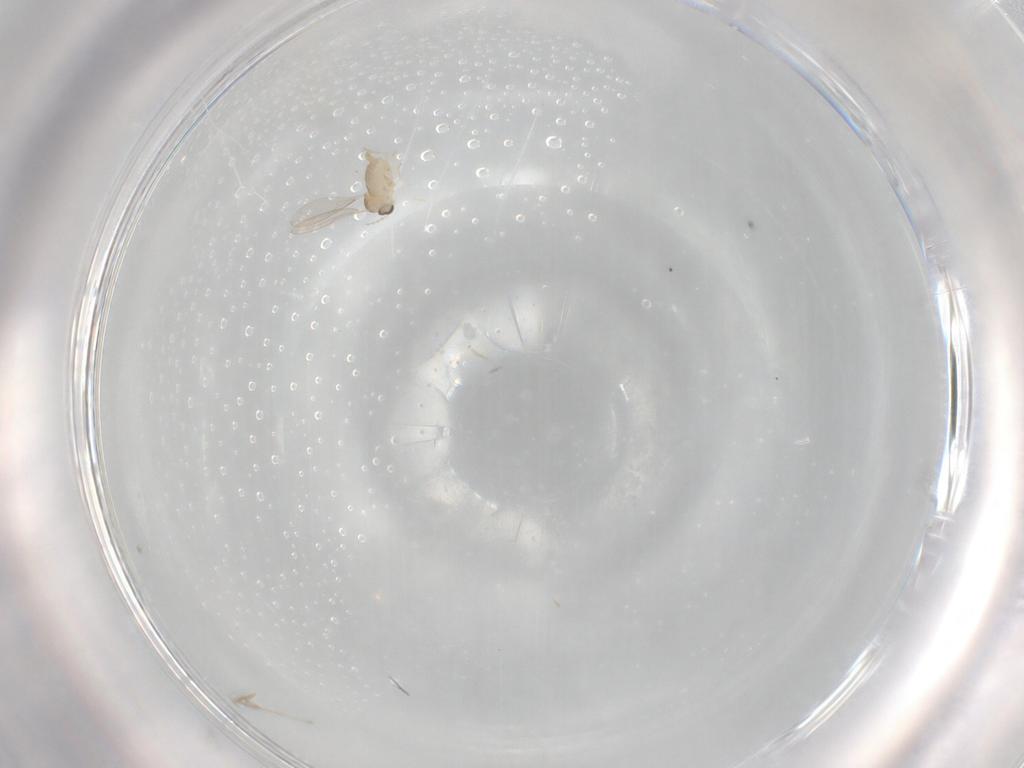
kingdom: Animalia
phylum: Arthropoda
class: Insecta
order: Diptera
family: Cecidomyiidae
